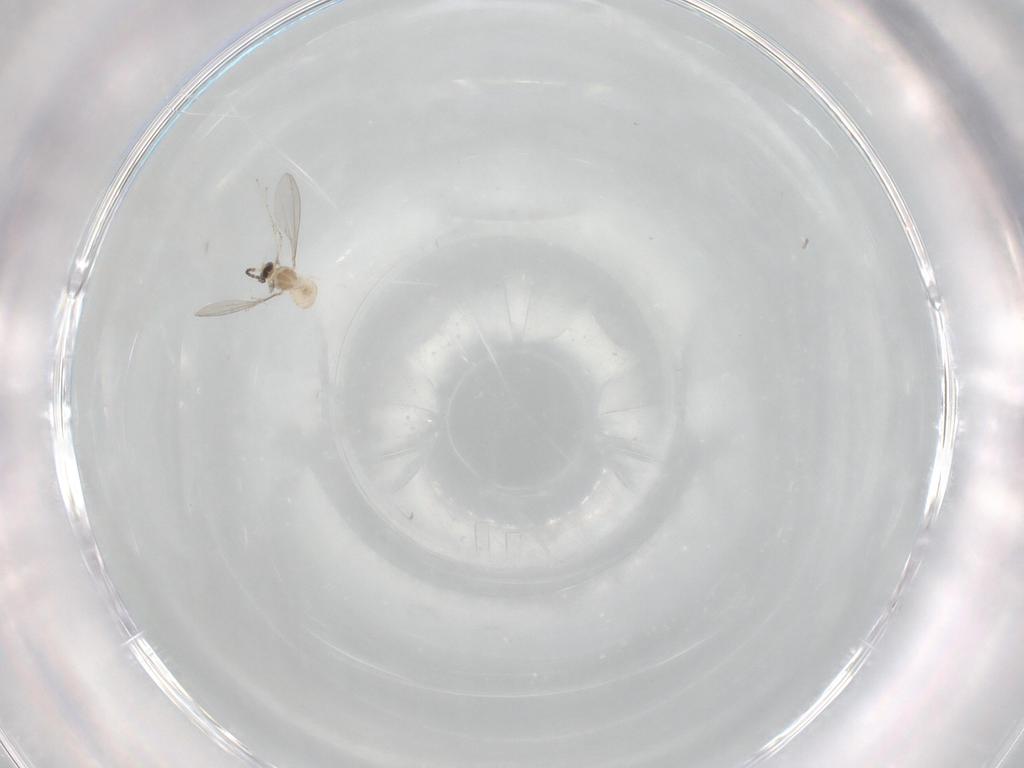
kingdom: Animalia
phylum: Arthropoda
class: Insecta
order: Diptera
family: Cecidomyiidae
